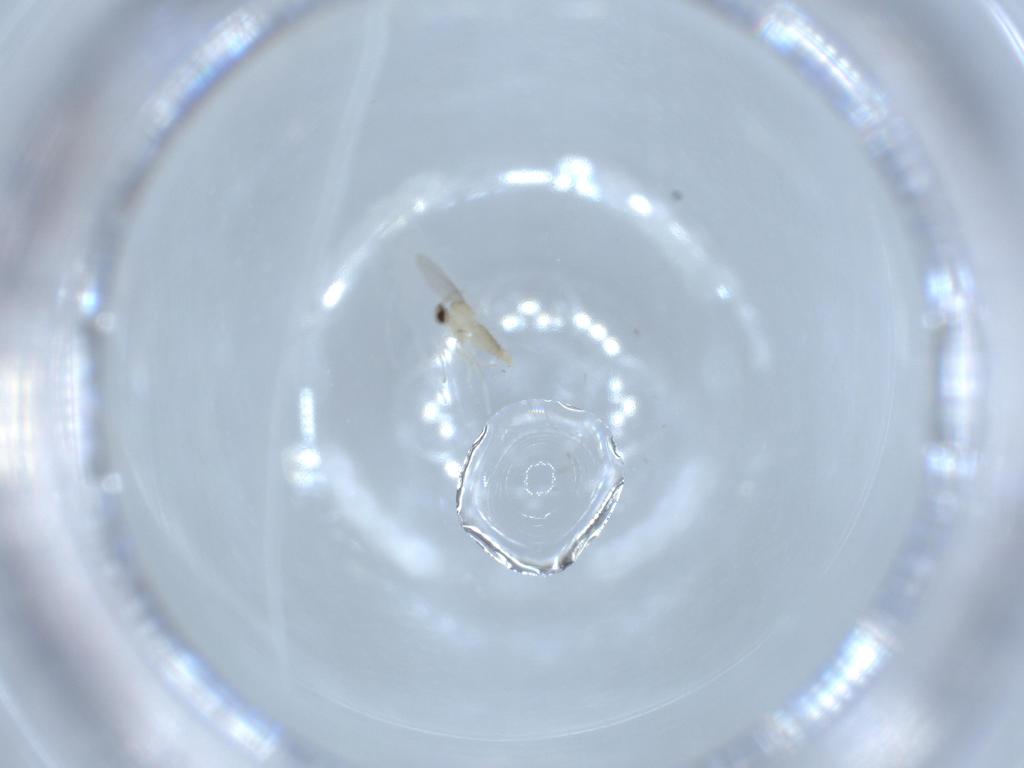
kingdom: Animalia
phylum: Arthropoda
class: Insecta
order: Diptera
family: Cecidomyiidae
